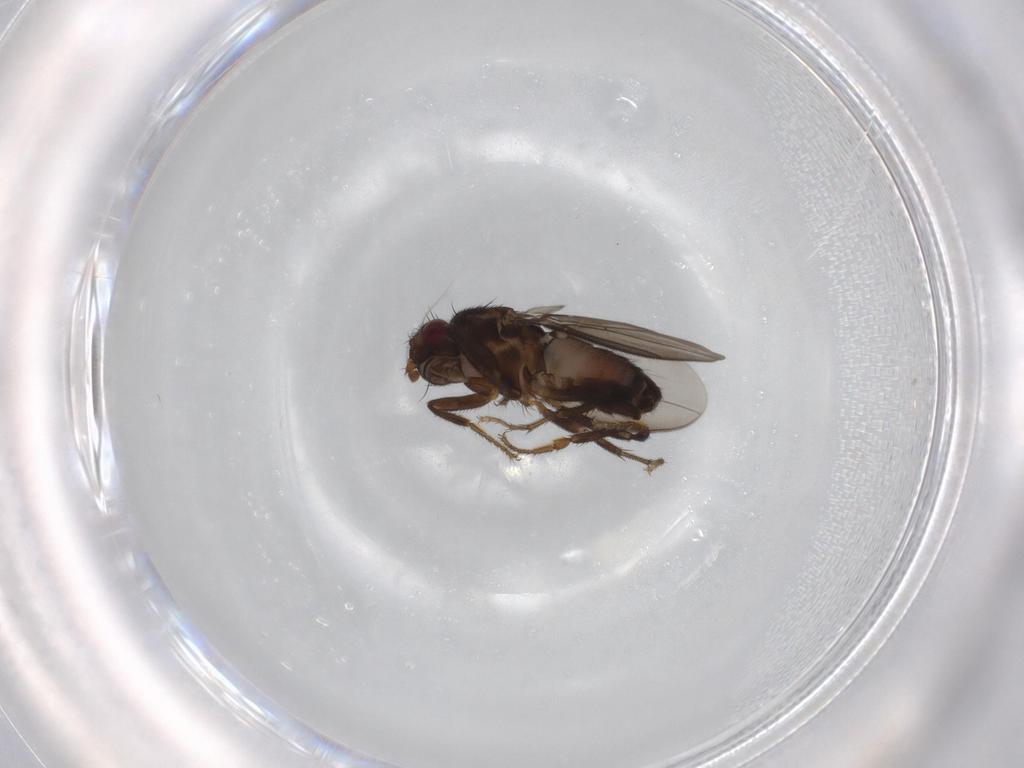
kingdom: Animalia
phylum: Arthropoda
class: Insecta
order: Diptera
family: Sphaeroceridae
